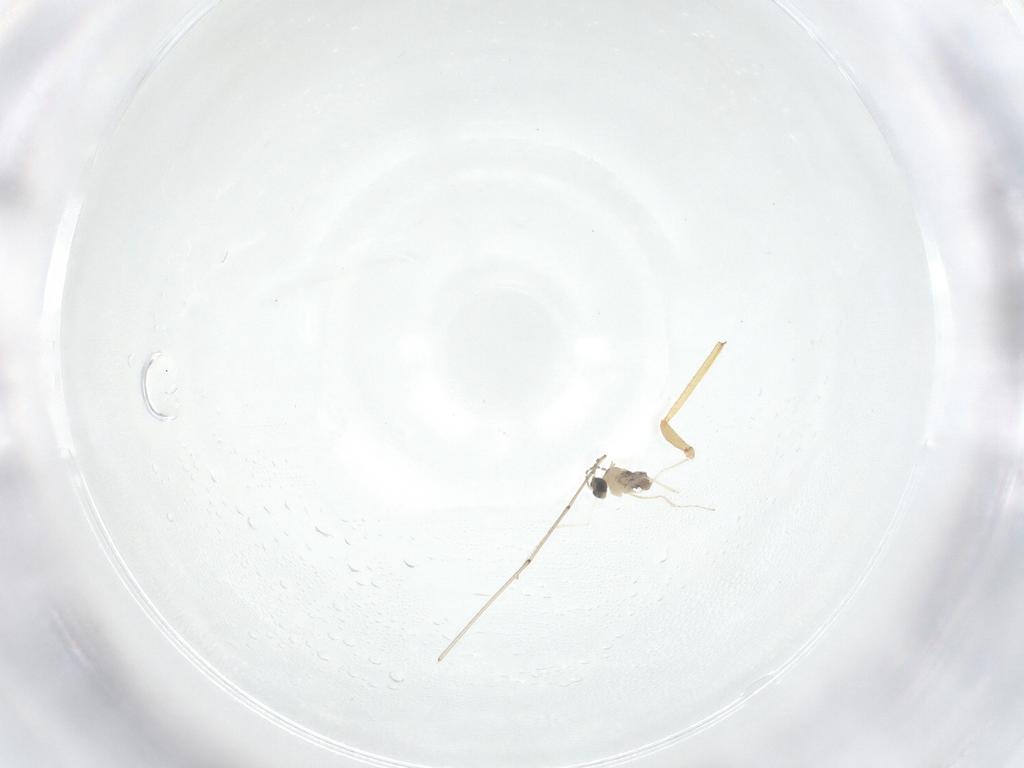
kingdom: Animalia
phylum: Arthropoda
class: Insecta
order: Diptera
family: Cecidomyiidae
